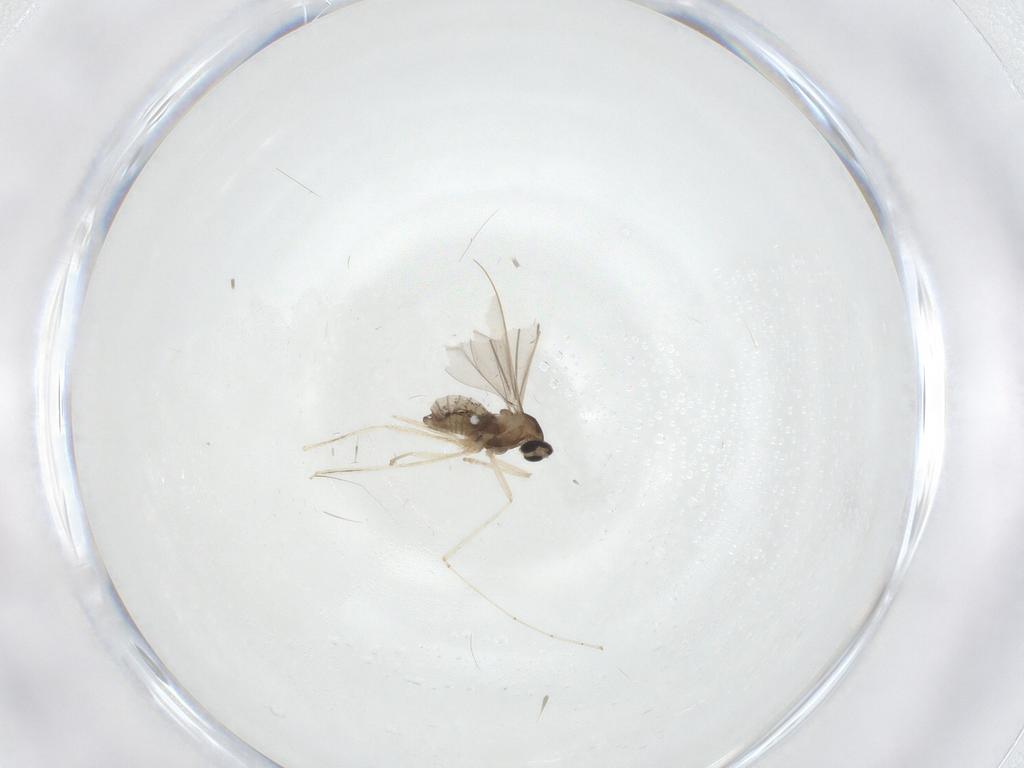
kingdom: Animalia
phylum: Arthropoda
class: Insecta
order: Diptera
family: Cecidomyiidae
